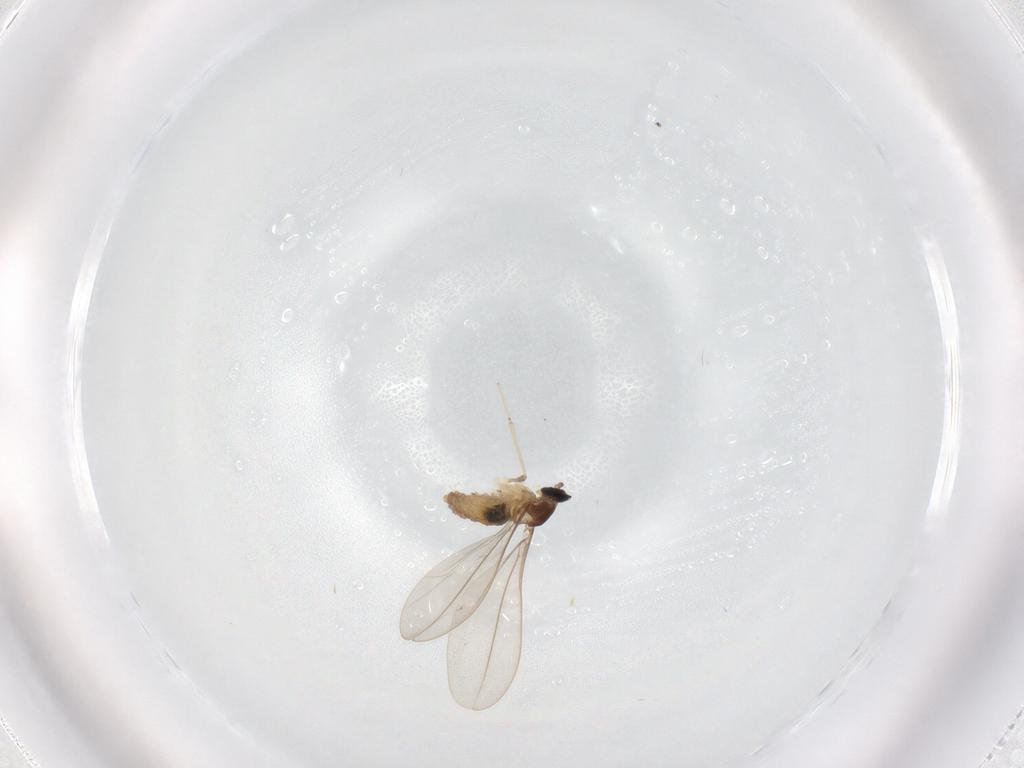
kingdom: Animalia
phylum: Arthropoda
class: Insecta
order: Diptera
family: Cecidomyiidae
